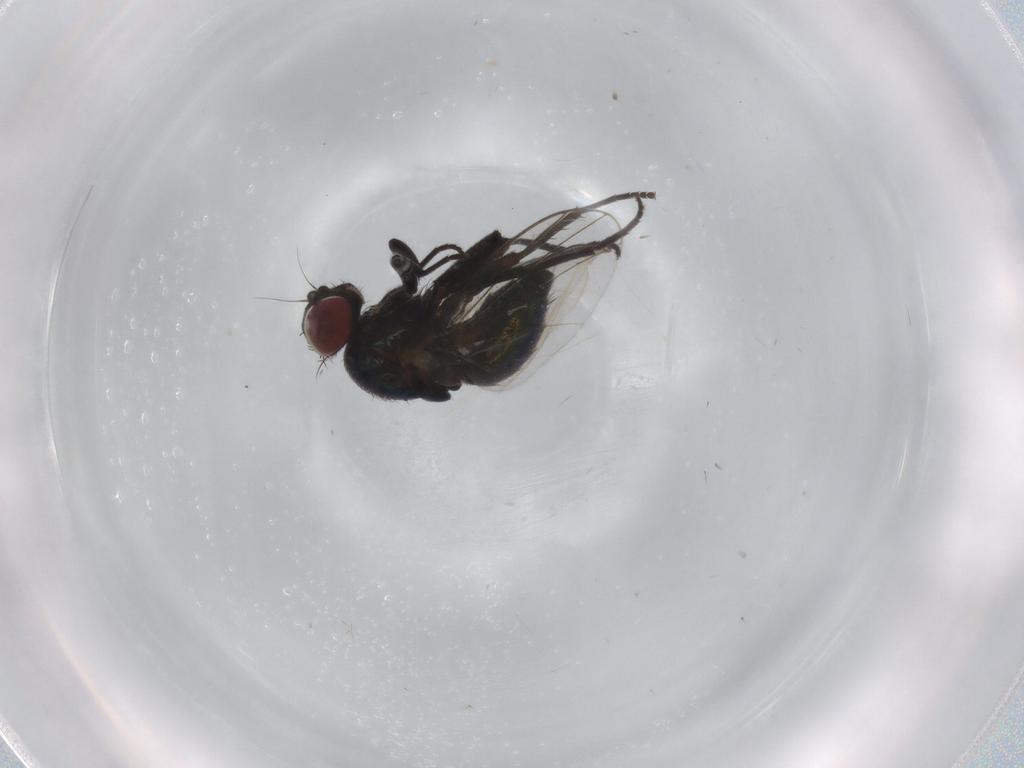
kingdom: Animalia
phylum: Arthropoda
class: Insecta
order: Diptera
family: Agromyzidae
